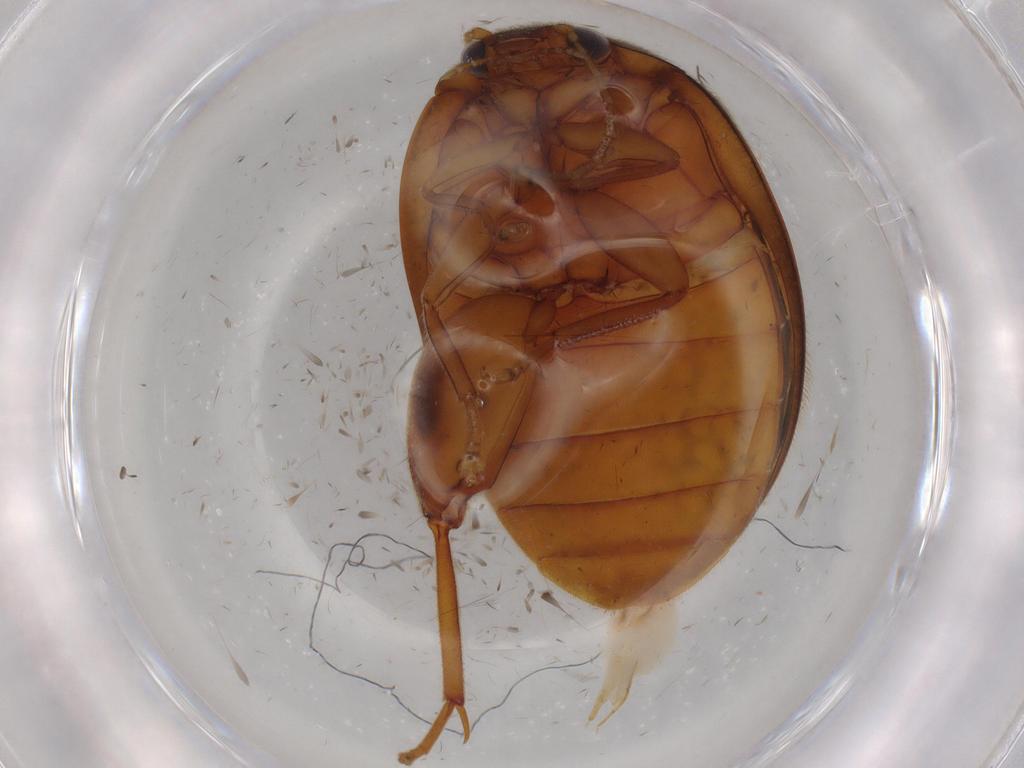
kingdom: Animalia
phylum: Arthropoda
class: Insecta
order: Coleoptera
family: Scirtidae
